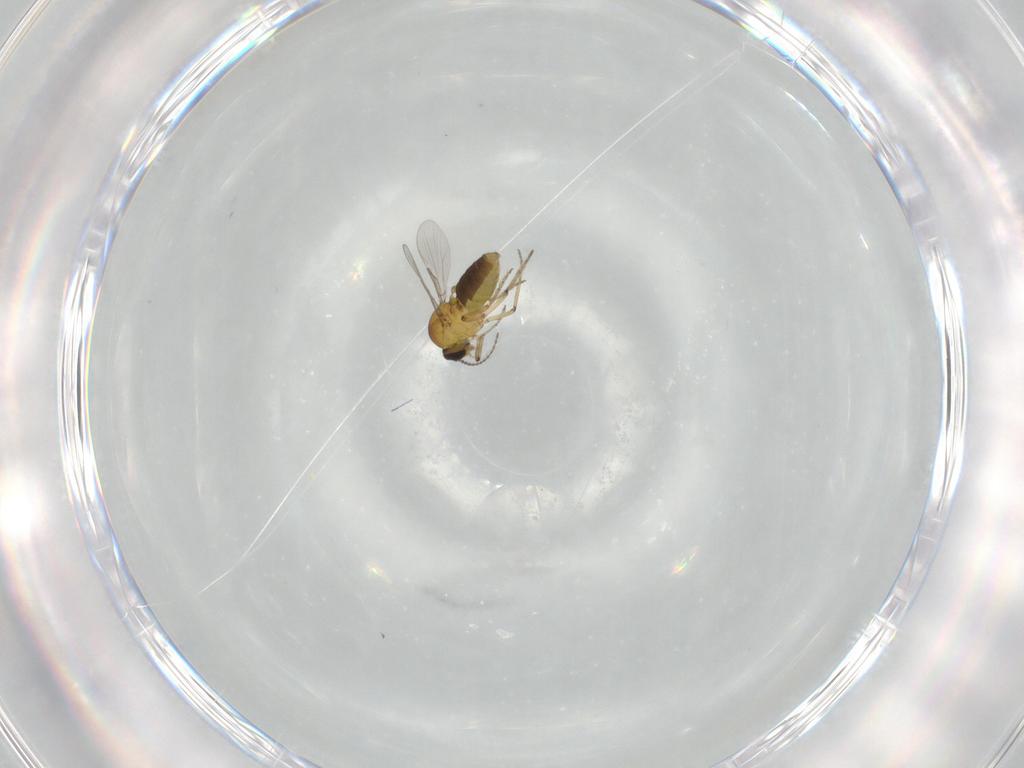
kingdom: Animalia
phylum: Arthropoda
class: Insecta
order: Diptera
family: Ceratopogonidae
